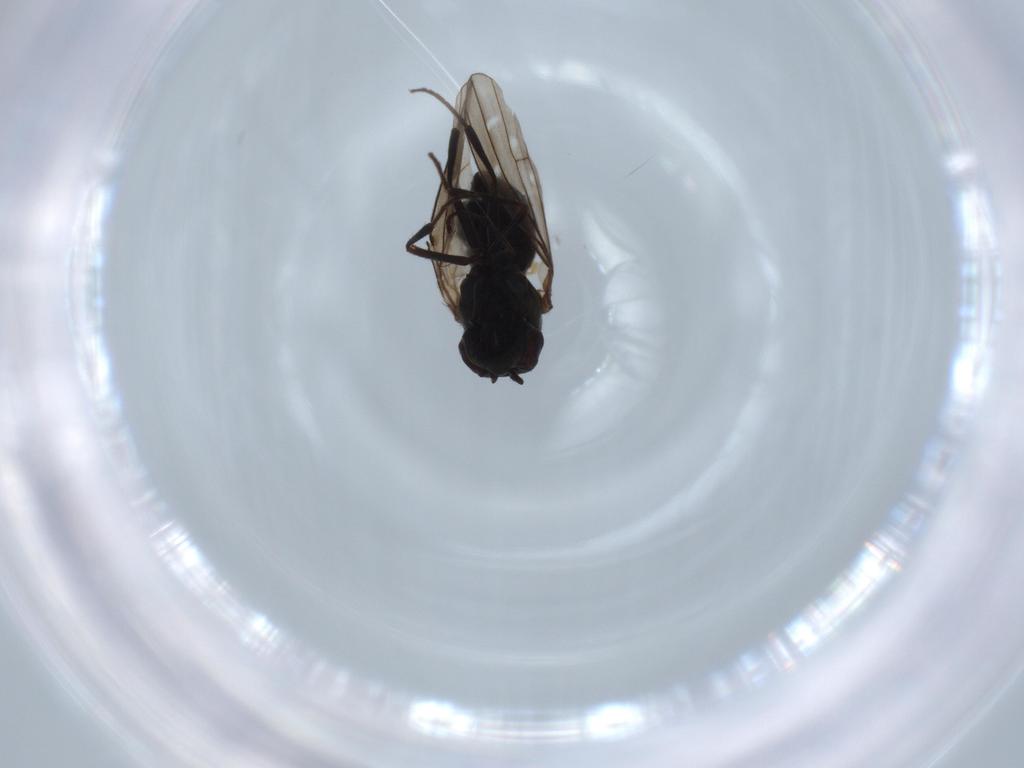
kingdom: Animalia
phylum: Arthropoda
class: Insecta
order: Diptera
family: Ephydridae
